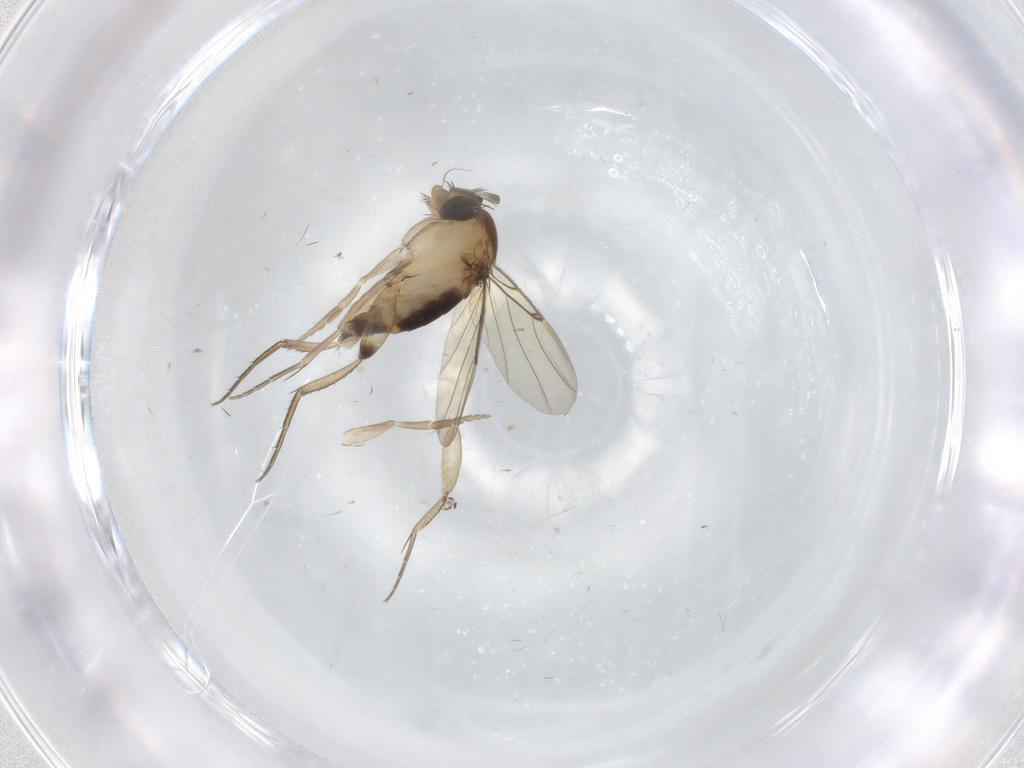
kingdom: Animalia
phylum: Arthropoda
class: Insecta
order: Diptera
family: Phoridae
